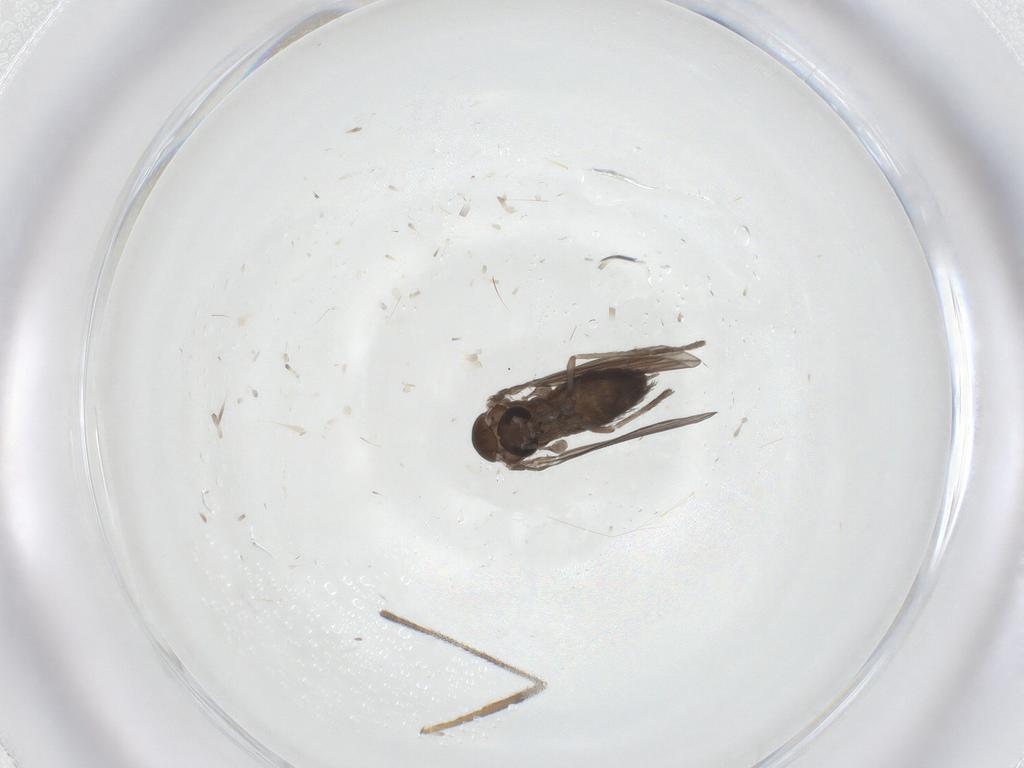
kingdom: Animalia
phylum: Arthropoda
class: Insecta
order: Diptera
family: Psychodidae
